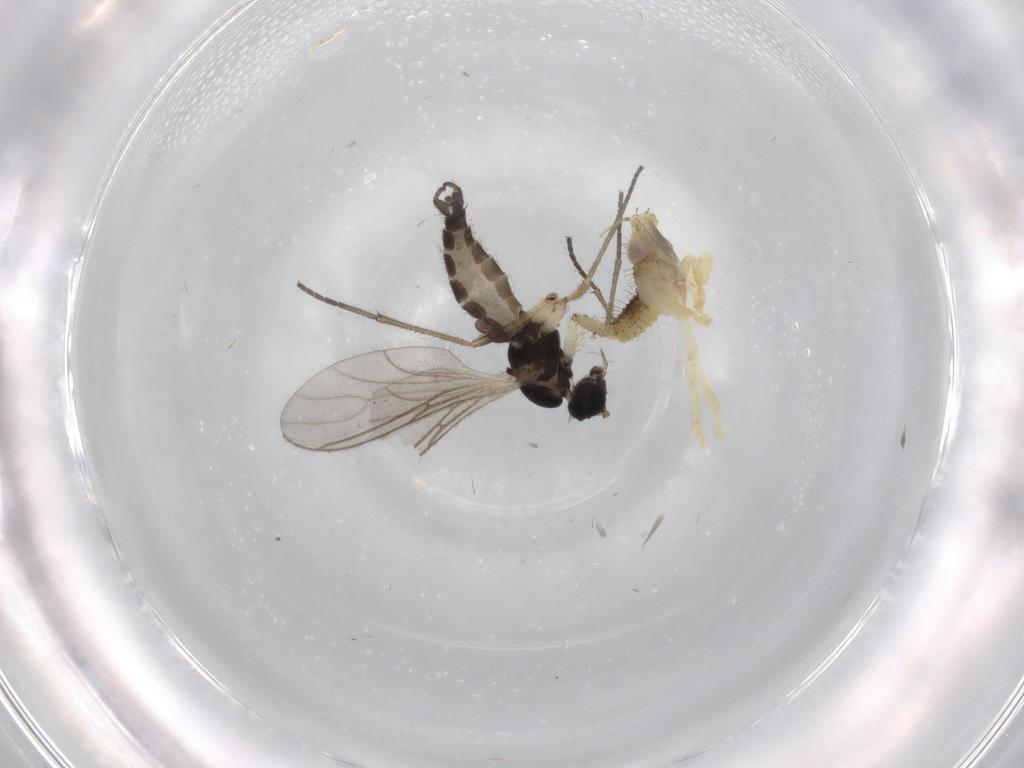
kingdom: Animalia
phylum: Arthropoda
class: Insecta
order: Diptera
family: Sciaridae
